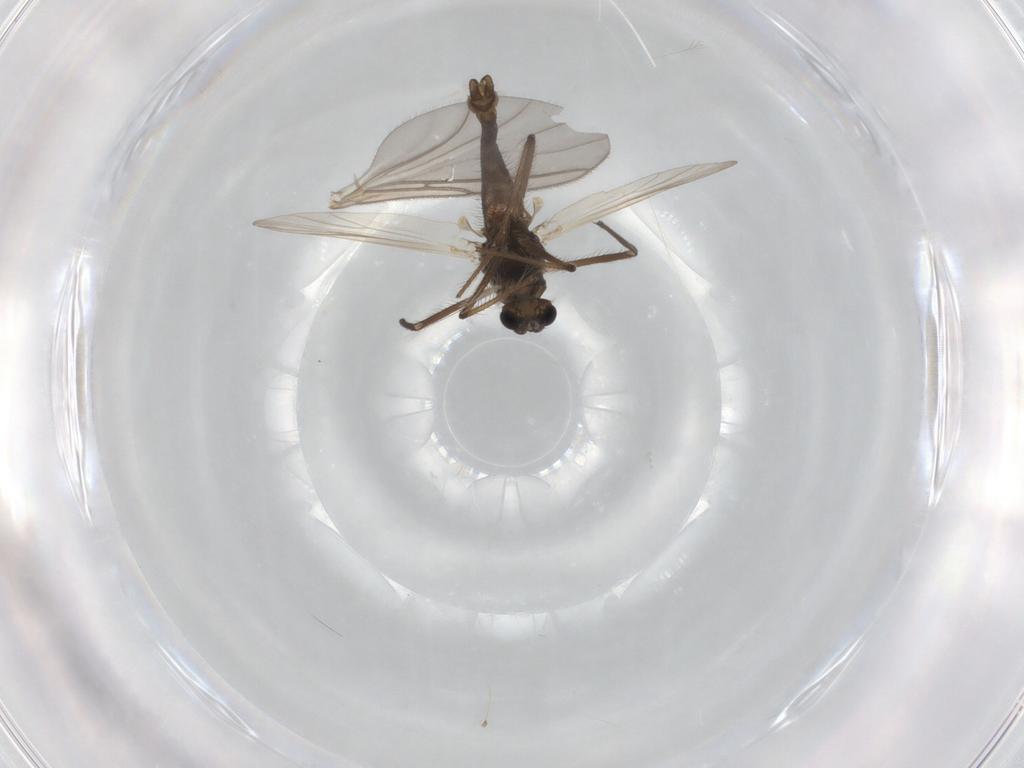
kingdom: Animalia
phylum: Arthropoda
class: Insecta
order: Diptera
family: Chironomidae
